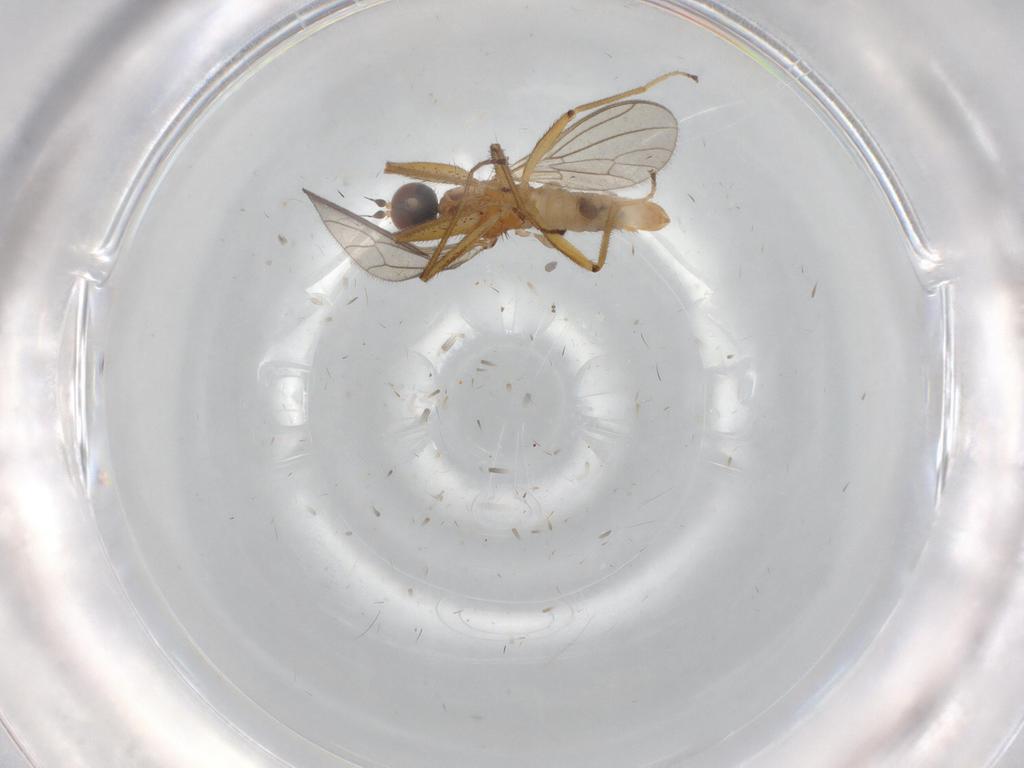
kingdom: Animalia
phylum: Arthropoda
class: Insecta
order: Diptera
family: Empididae
